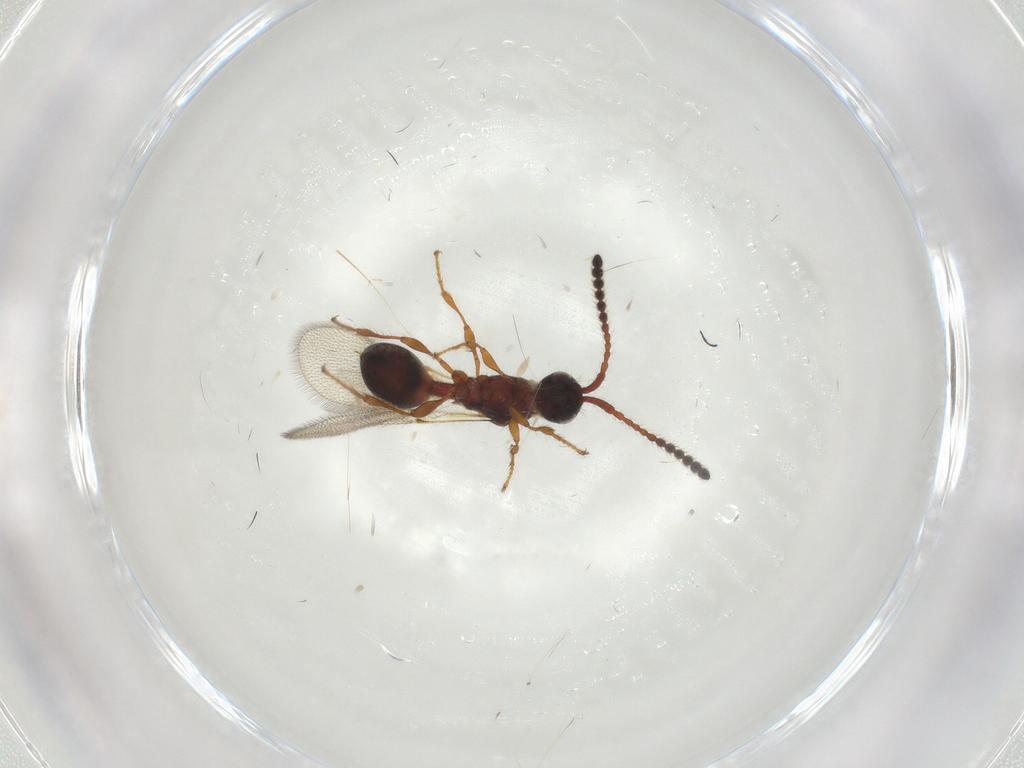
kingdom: Animalia
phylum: Arthropoda
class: Insecta
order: Hymenoptera
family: Diapriidae
